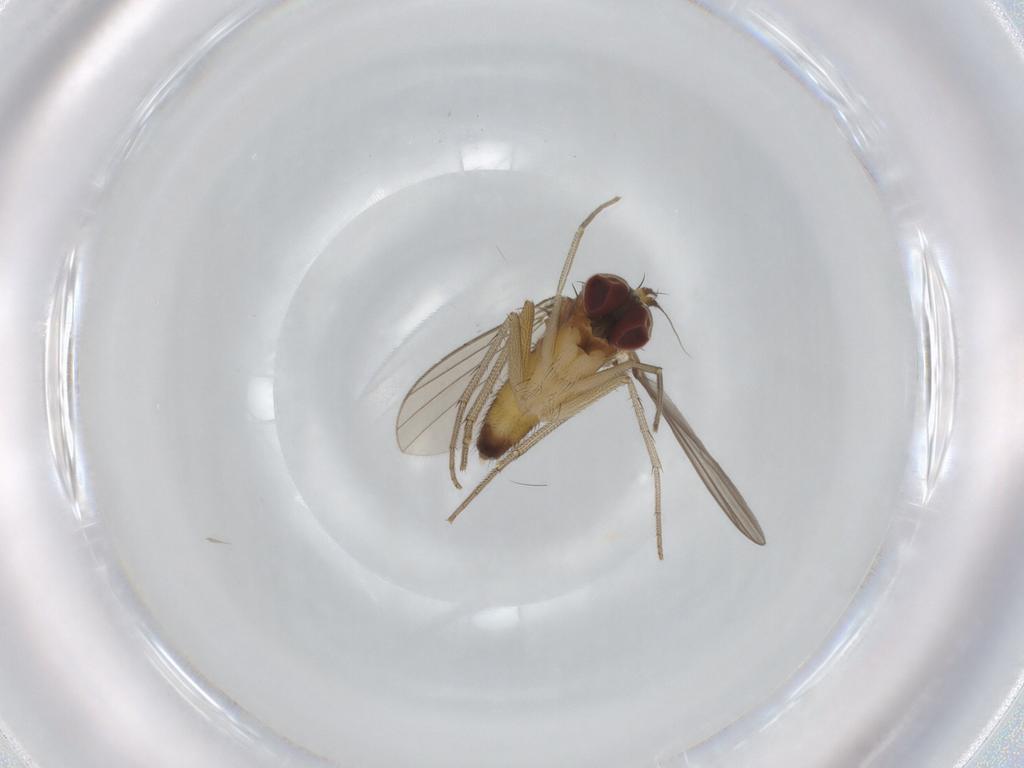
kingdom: Animalia
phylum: Arthropoda
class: Insecta
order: Diptera
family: Dolichopodidae
